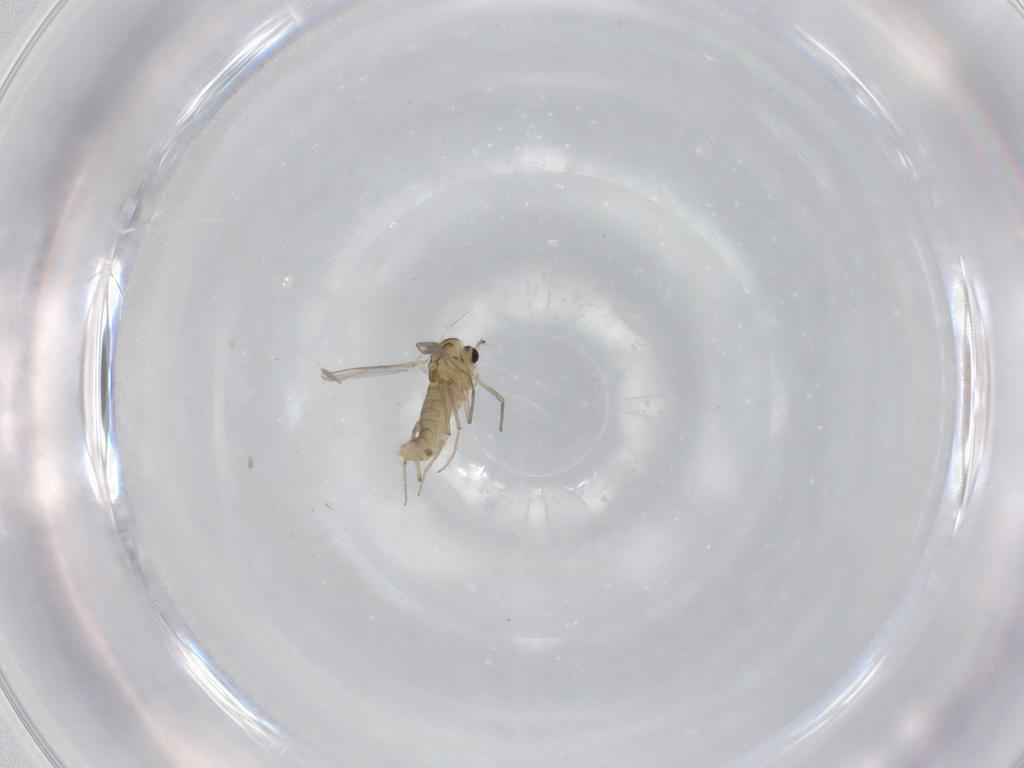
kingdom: Animalia
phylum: Arthropoda
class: Insecta
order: Diptera
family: Chironomidae
